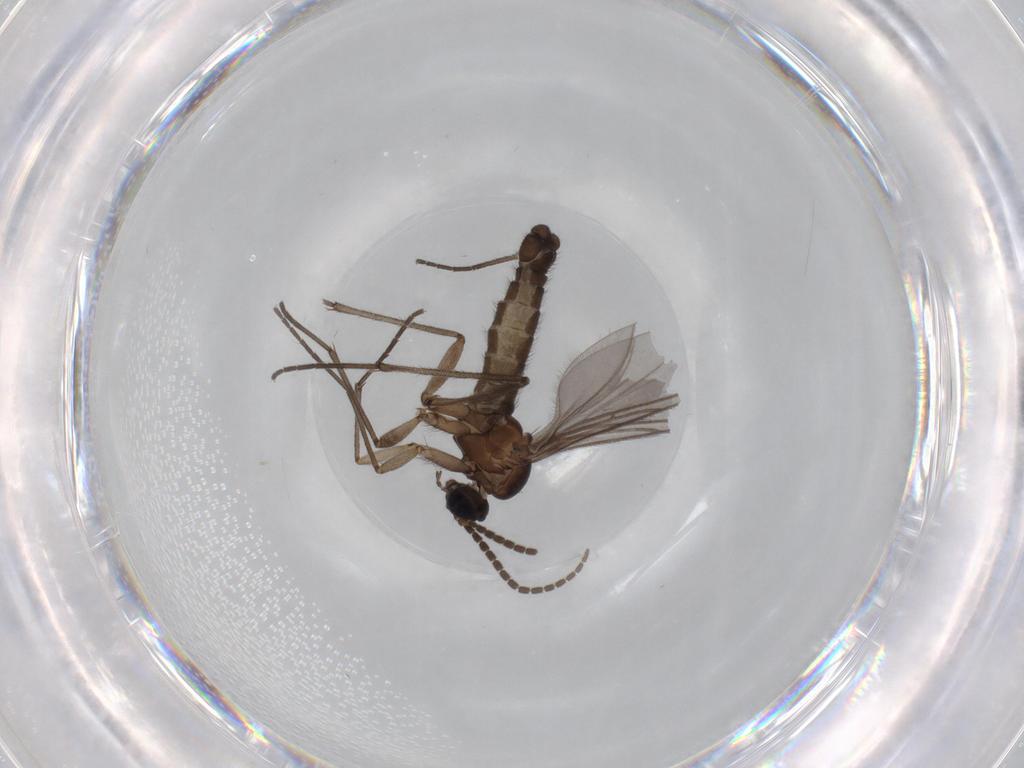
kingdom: Animalia
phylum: Arthropoda
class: Insecta
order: Diptera
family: Sciaridae
